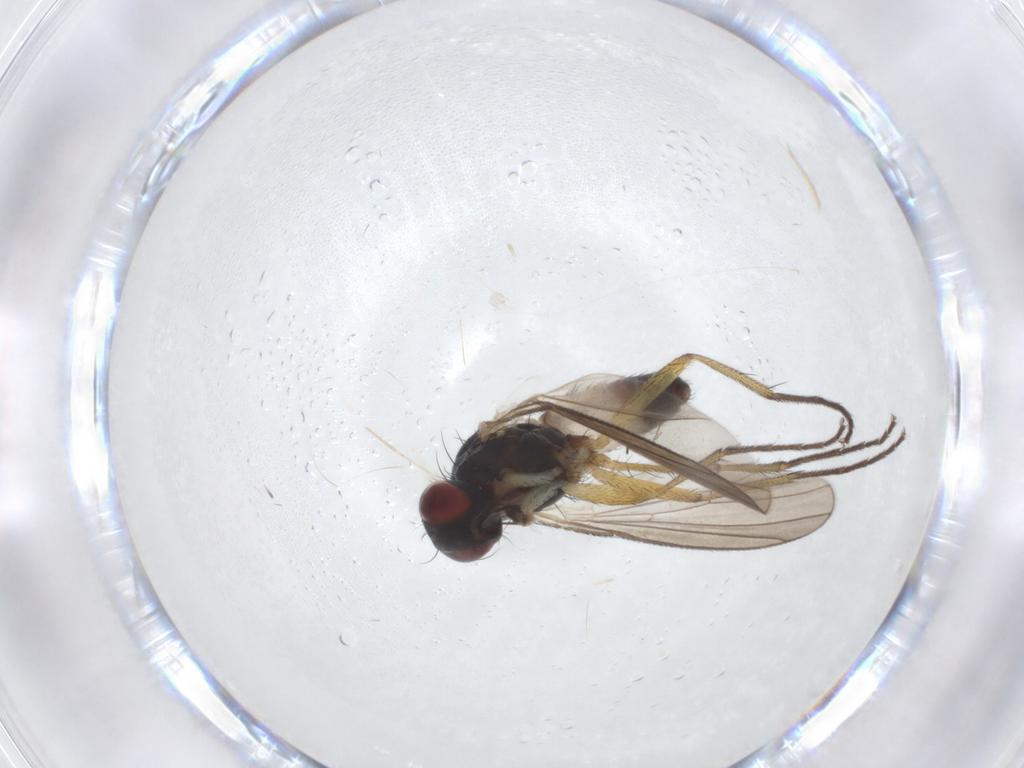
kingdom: Animalia
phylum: Arthropoda
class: Insecta
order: Diptera
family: Muscidae
